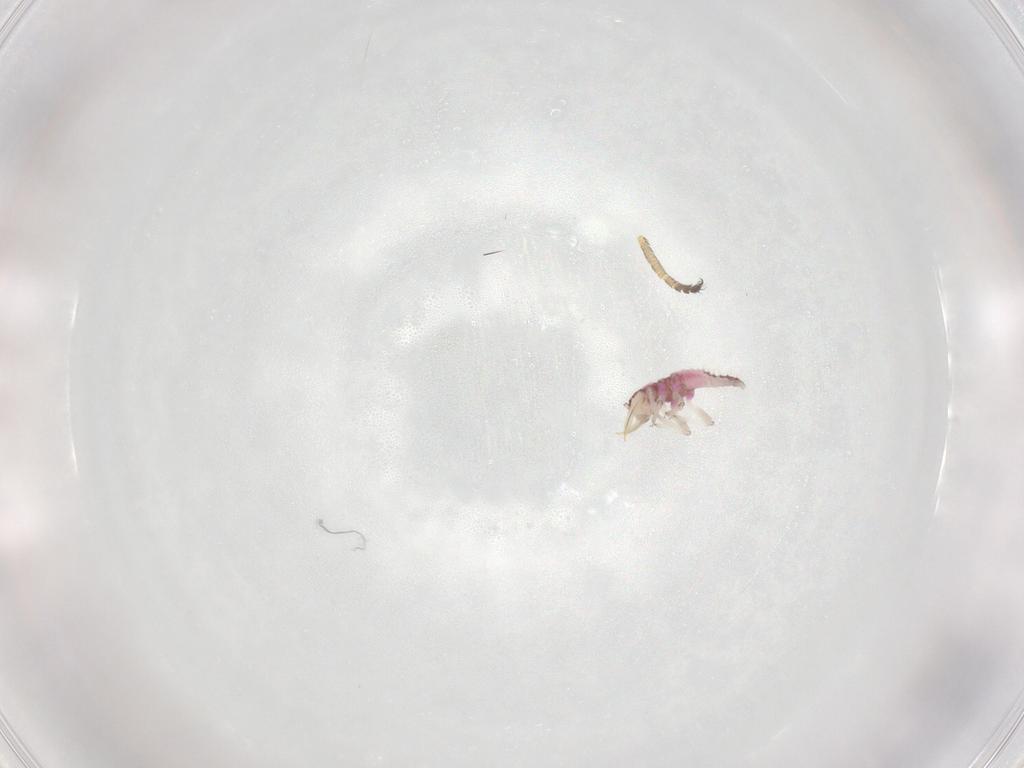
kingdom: Animalia
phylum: Arthropoda
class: Insecta
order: Neuroptera
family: Hemerobiidae
